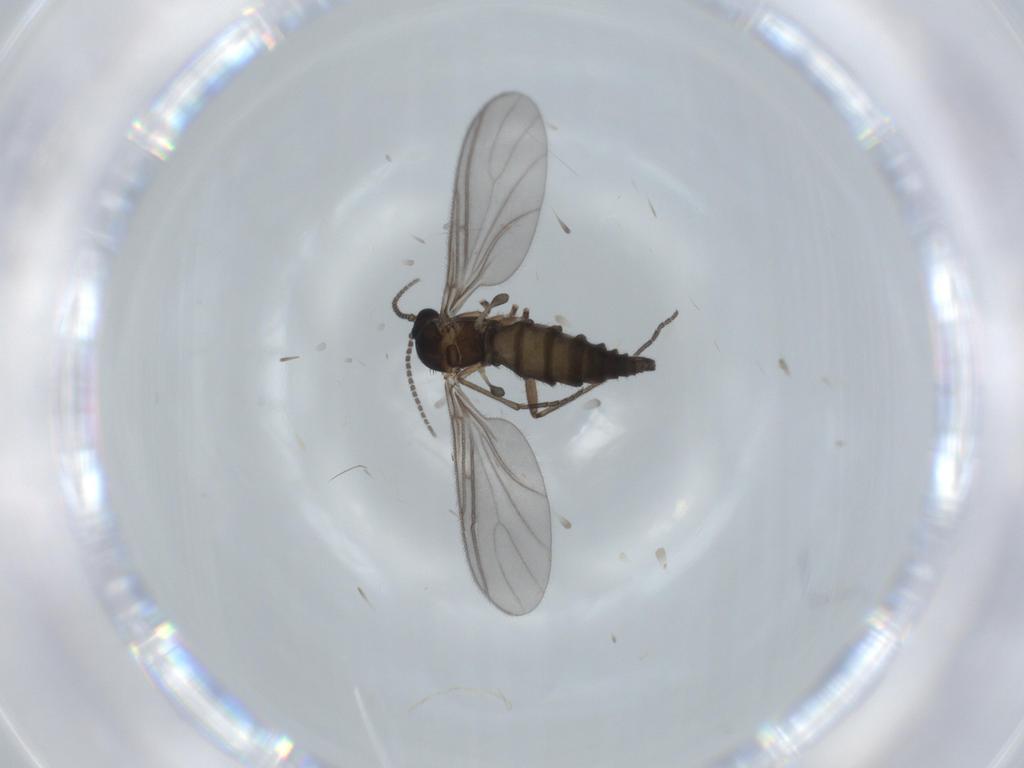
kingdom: Animalia
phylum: Arthropoda
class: Insecta
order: Diptera
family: Sciaridae
